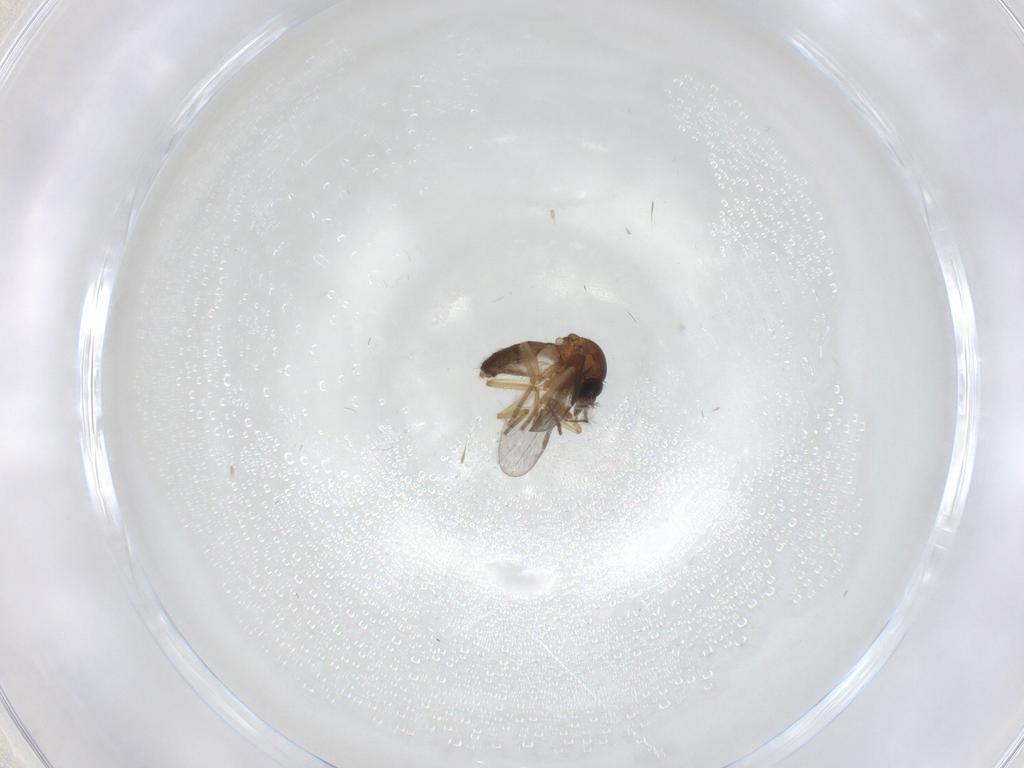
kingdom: Animalia
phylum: Arthropoda
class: Insecta
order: Diptera
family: Ceratopogonidae
